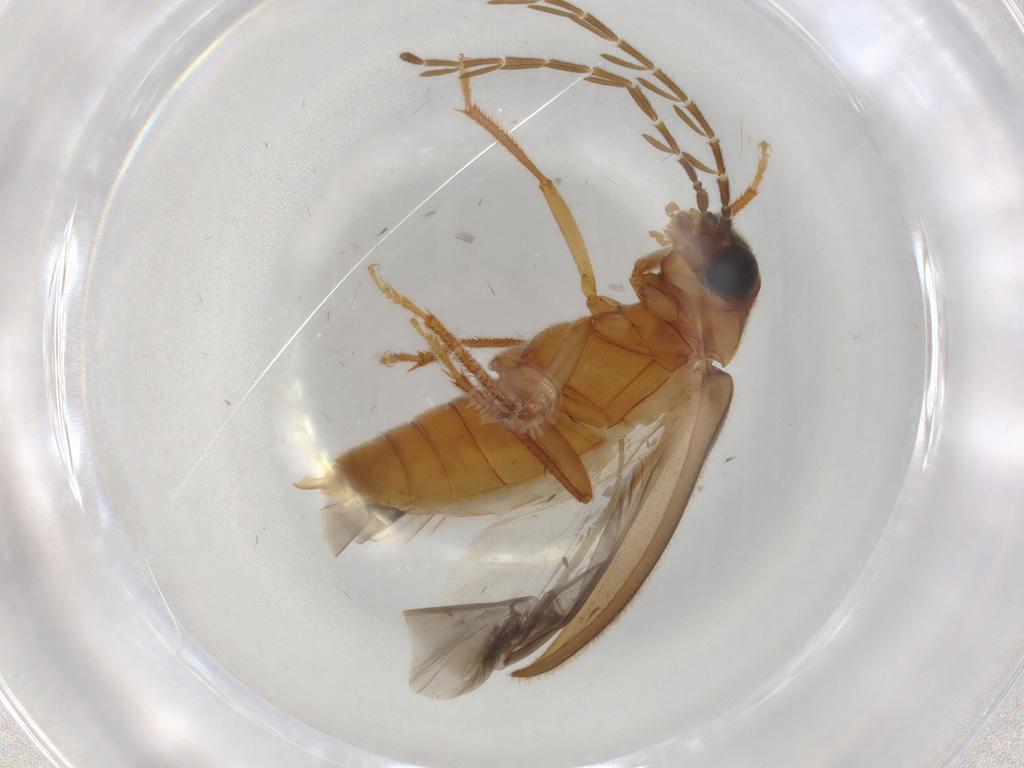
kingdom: Animalia
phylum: Arthropoda
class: Insecta
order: Coleoptera
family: Ptilodactylidae
